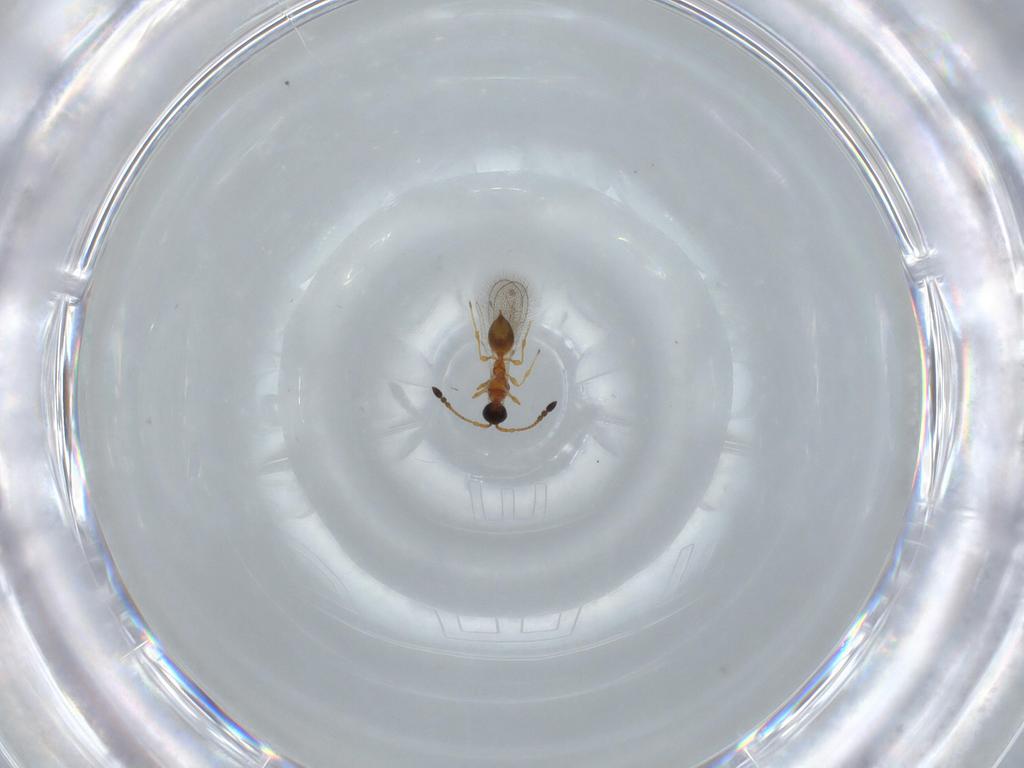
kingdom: Animalia
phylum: Arthropoda
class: Insecta
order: Hymenoptera
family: Diapriidae
